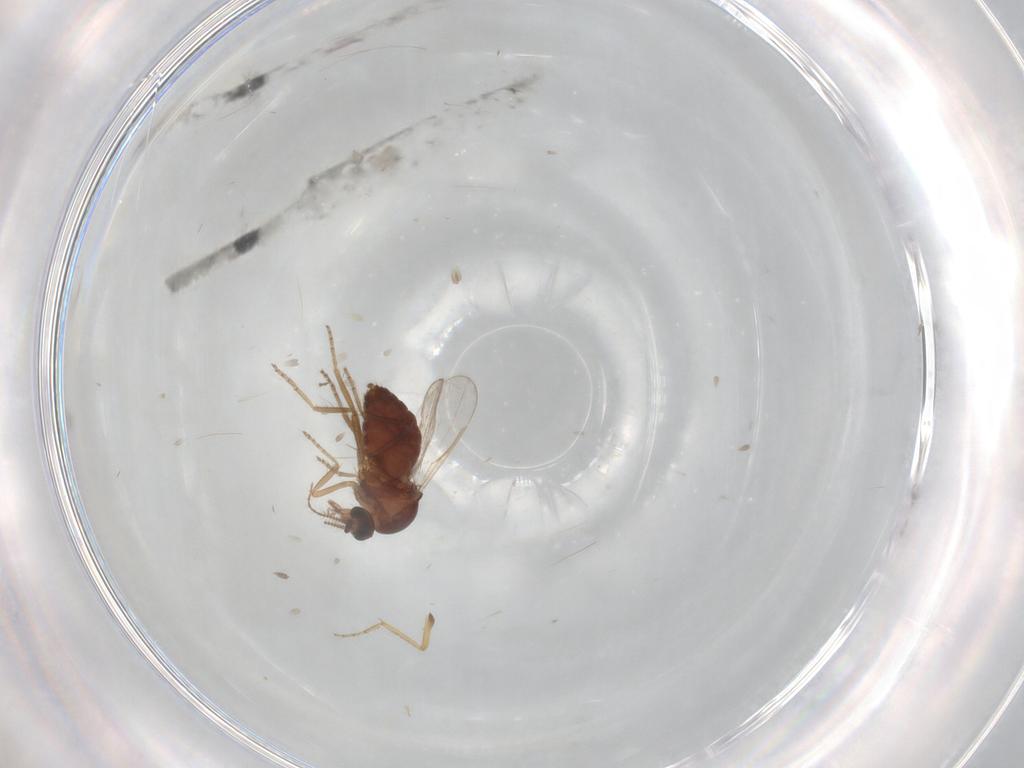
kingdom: Animalia
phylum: Arthropoda
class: Insecta
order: Diptera
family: Ceratopogonidae
